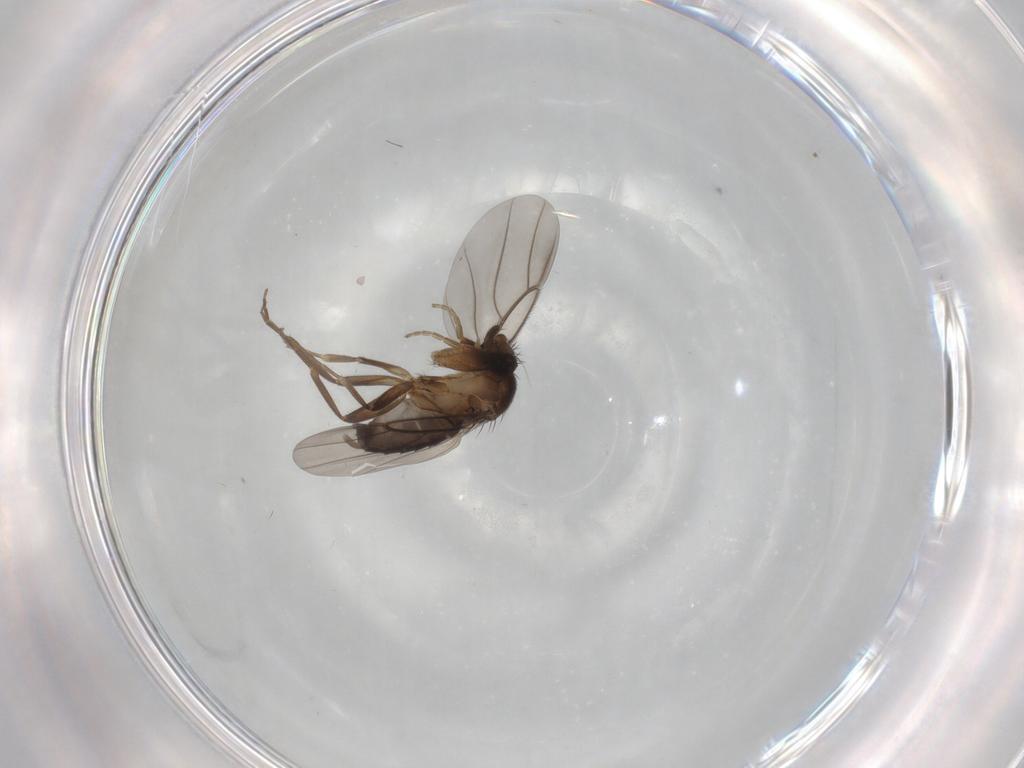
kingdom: Animalia
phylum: Arthropoda
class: Insecta
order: Diptera
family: Phoridae
